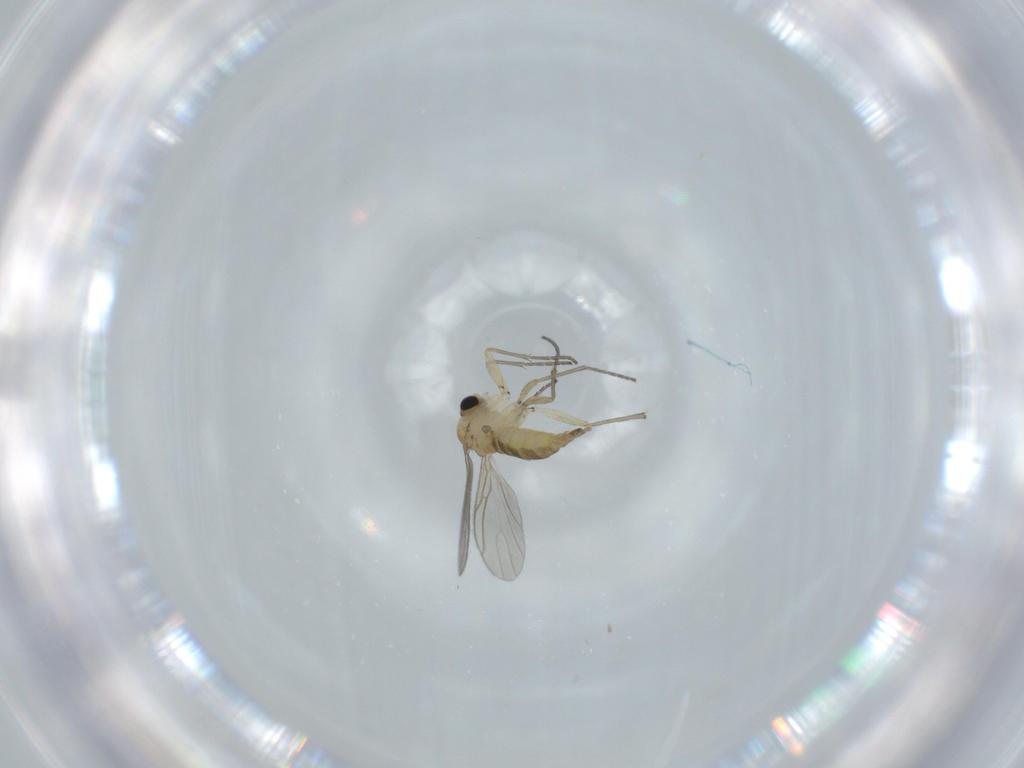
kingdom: Animalia
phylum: Arthropoda
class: Insecta
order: Diptera
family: Sciaridae
